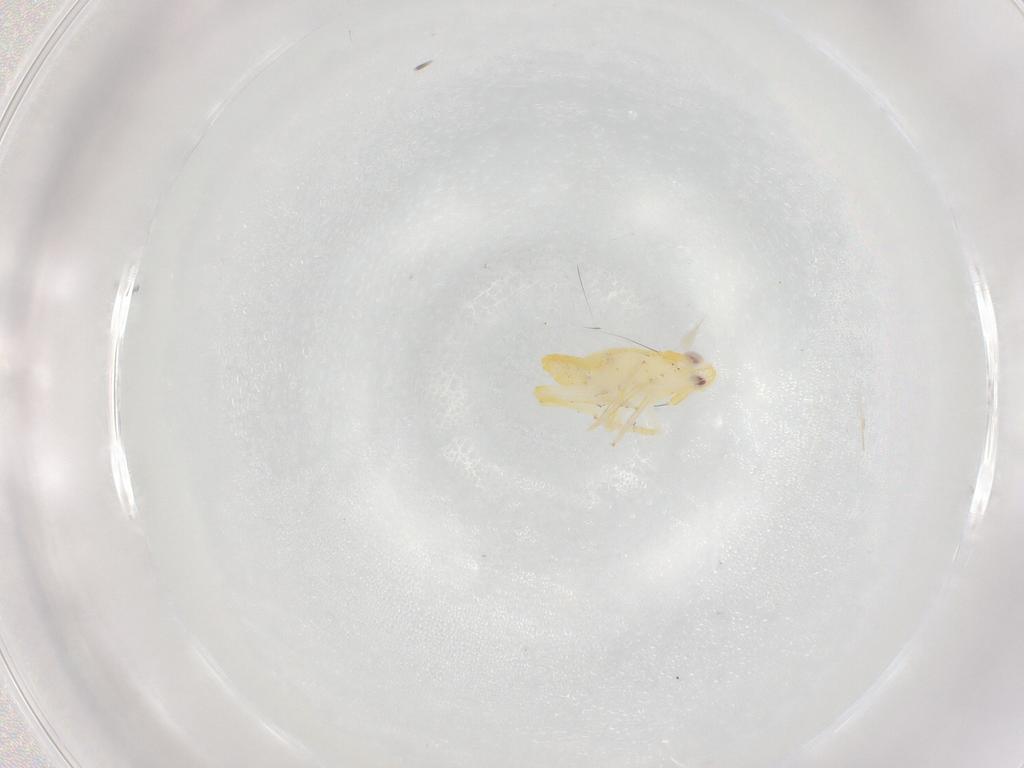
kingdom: Animalia
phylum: Arthropoda
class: Insecta
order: Hemiptera
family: Delphacidae
